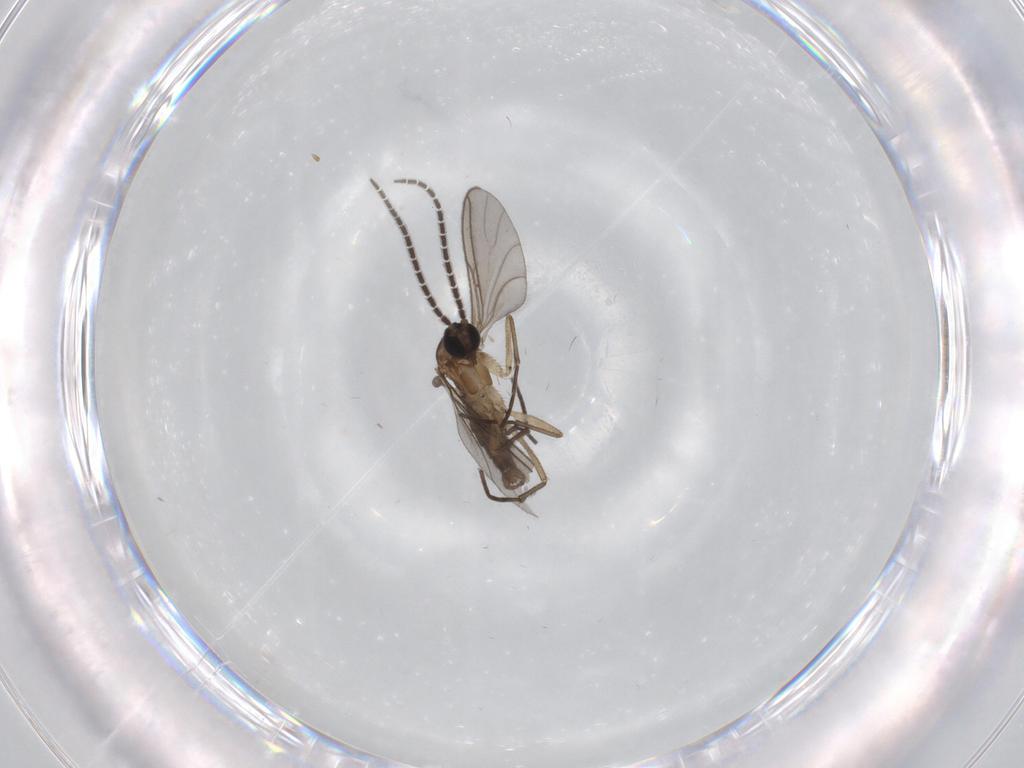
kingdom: Animalia
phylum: Arthropoda
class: Insecta
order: Diptera
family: Sciaridae
